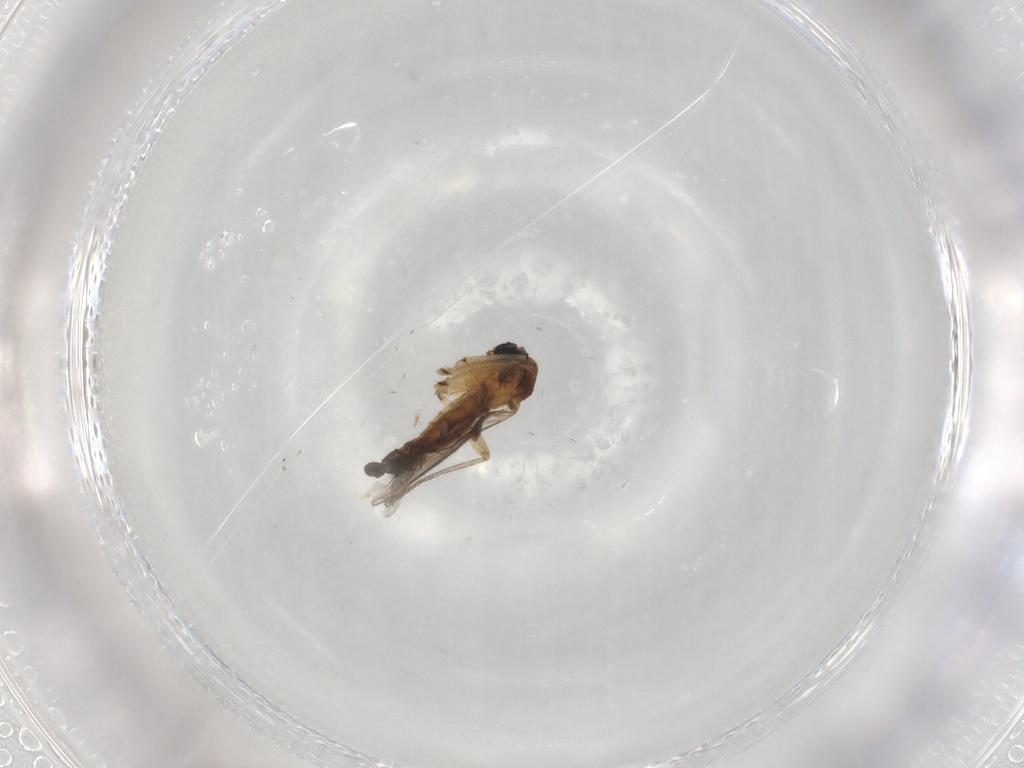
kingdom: Animalia
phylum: Arthropoda
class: Insecta
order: Diptera
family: Sciaridae
